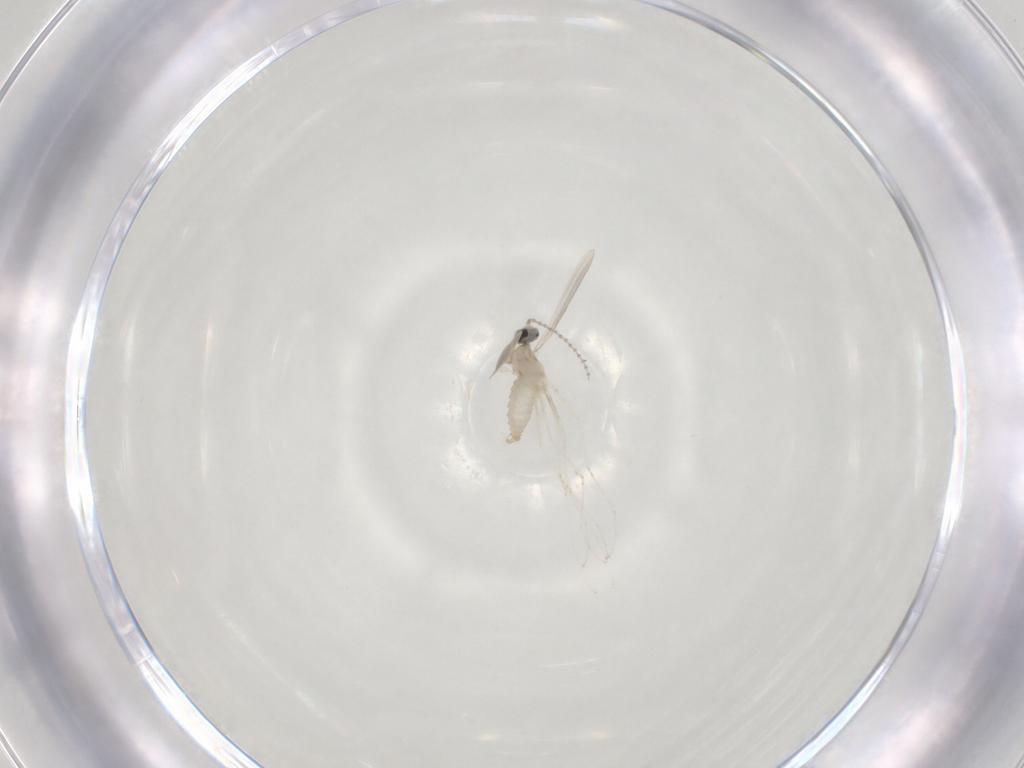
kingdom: Animalia
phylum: Arthropoda
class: Insecta
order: Diptera
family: Cecidomyiidae
